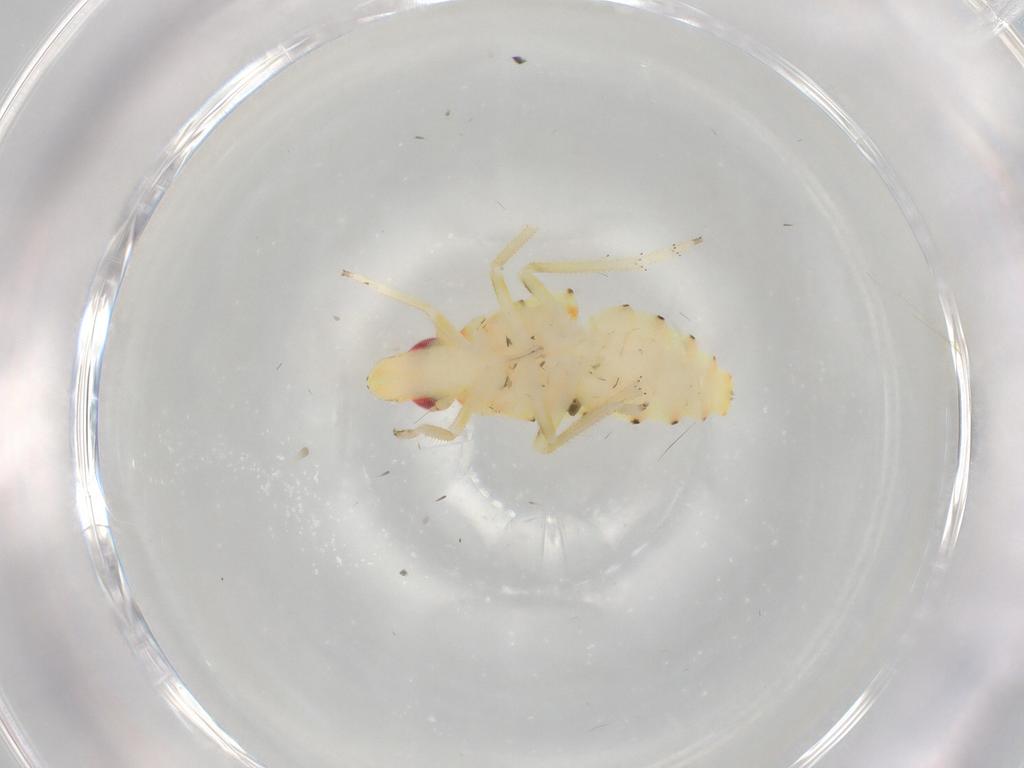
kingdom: Animalia
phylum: Arthropoda
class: Insecta
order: Hemiptera
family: Tropiduchidae
